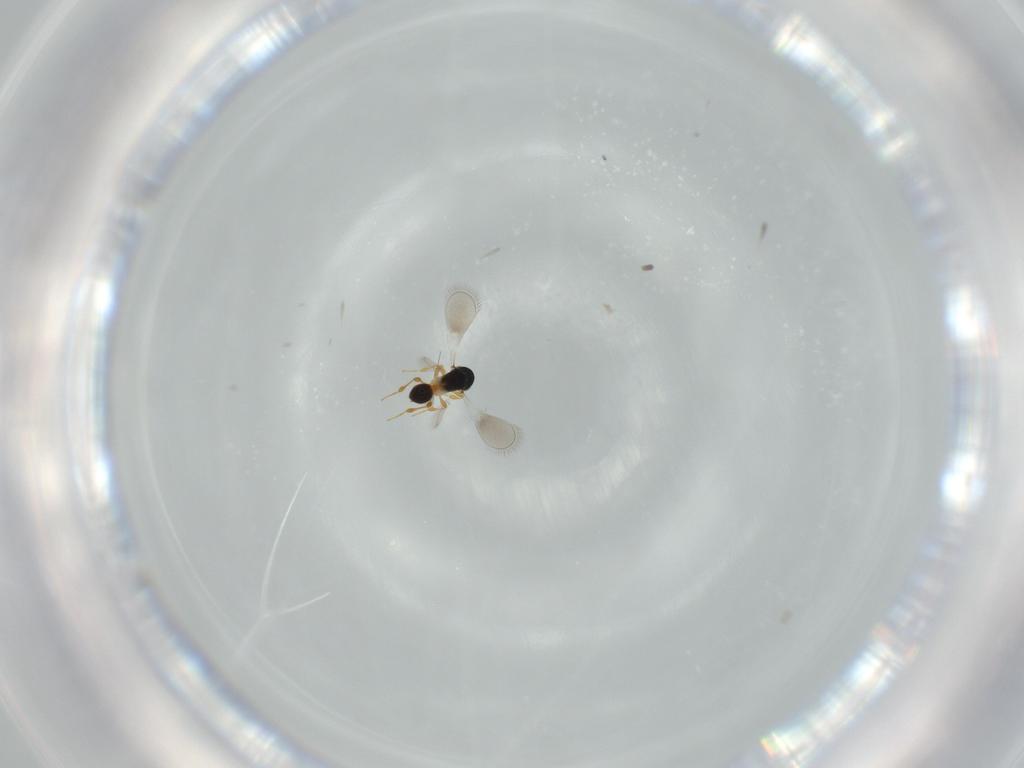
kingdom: Animalia
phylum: Arthropoda
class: Insecta
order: Hymenoptera
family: Platygastridae
